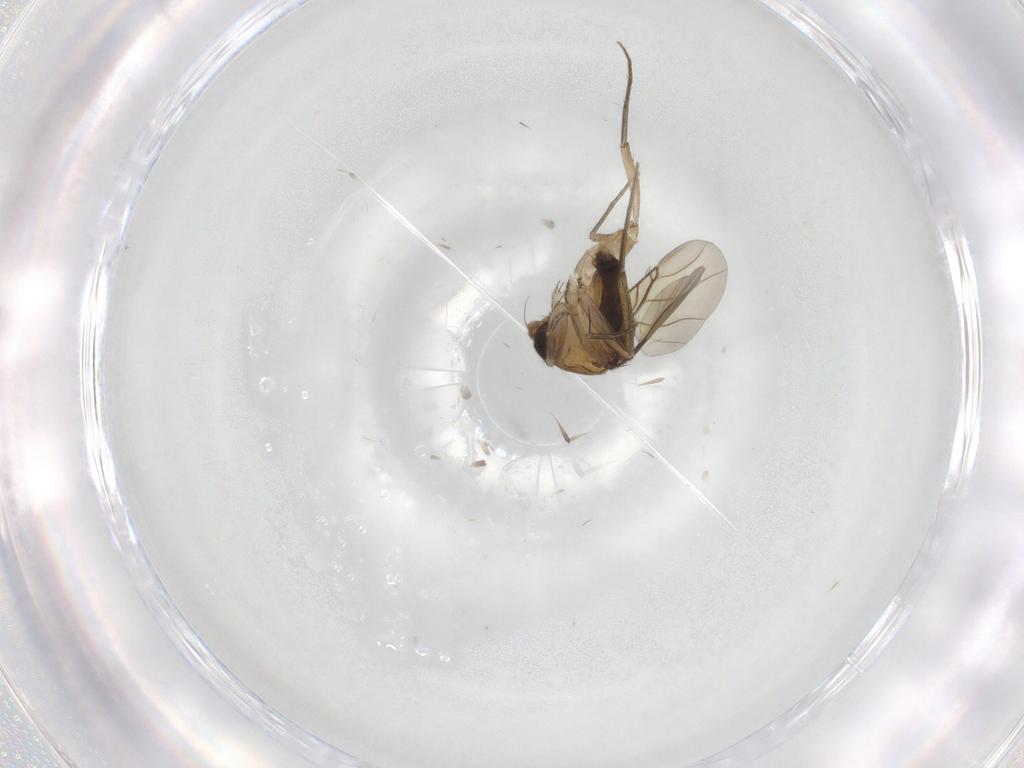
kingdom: Animalia
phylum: Arthropoda
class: Insecta
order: Diptera
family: Phoridae
